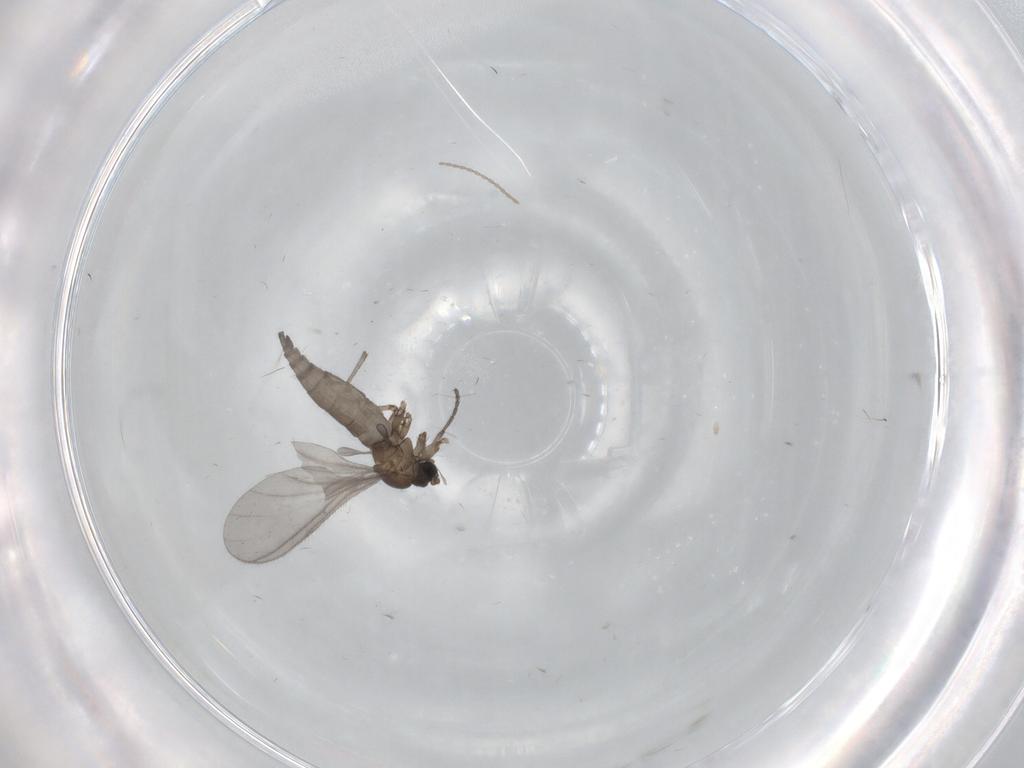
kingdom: Animalia
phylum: Arthropoda
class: Insecta
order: Diptera
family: Sciaridae
